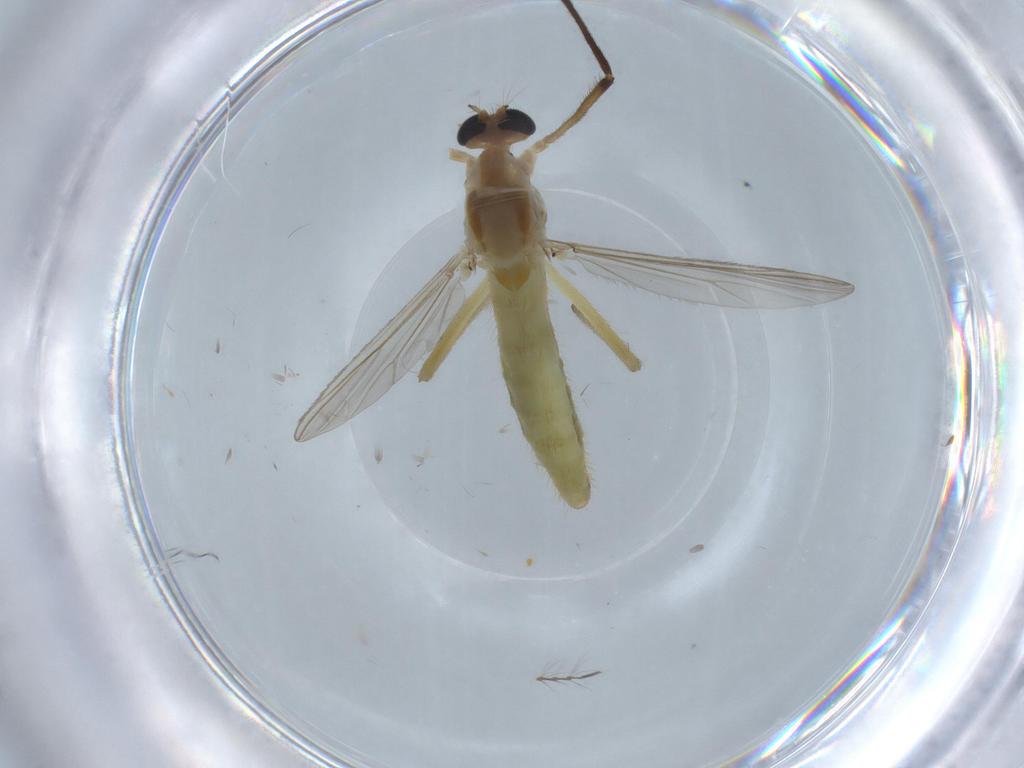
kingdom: Animalia
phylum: Arthropoda
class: Insecta
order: Diptera
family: Chironomidae
